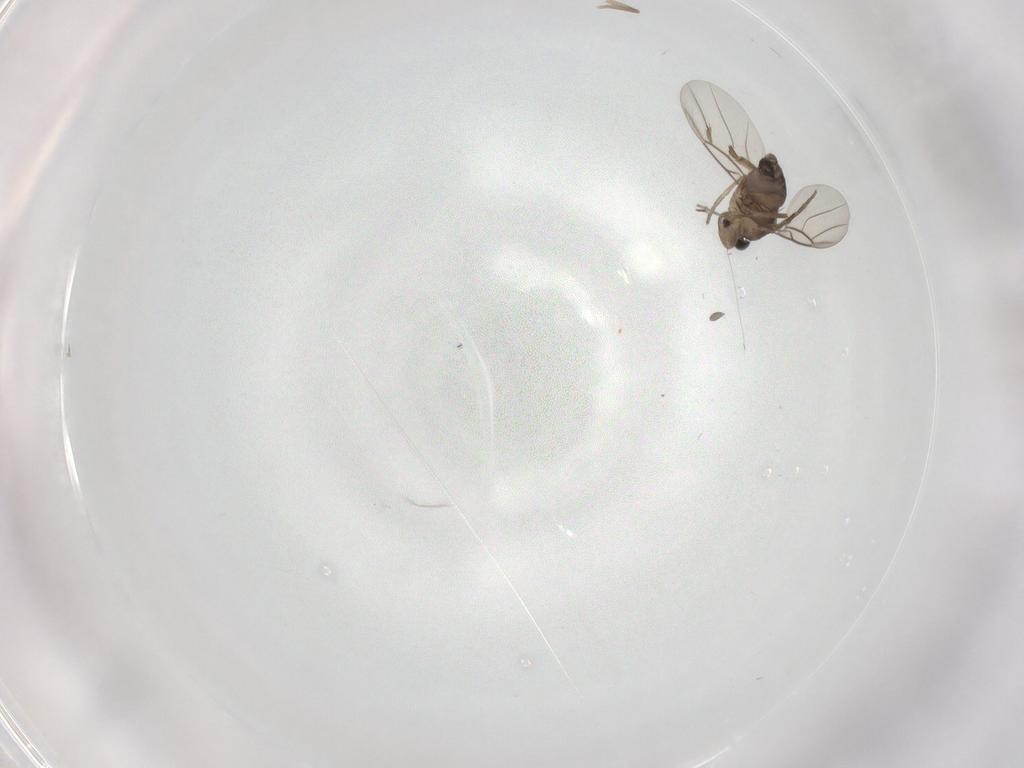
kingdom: Animalia
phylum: Arthropoda
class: Insecta
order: Diptera
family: Phoridae
